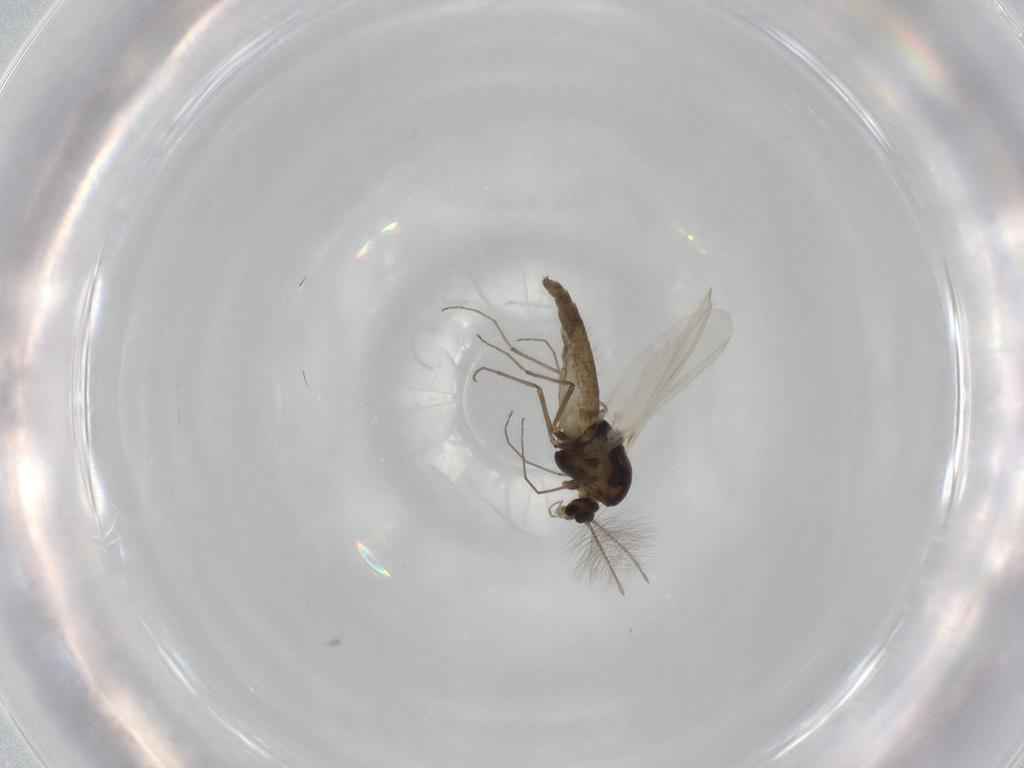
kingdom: Animalia
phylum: Arthropoda
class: Insecta
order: Diptera
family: Chironomidae
